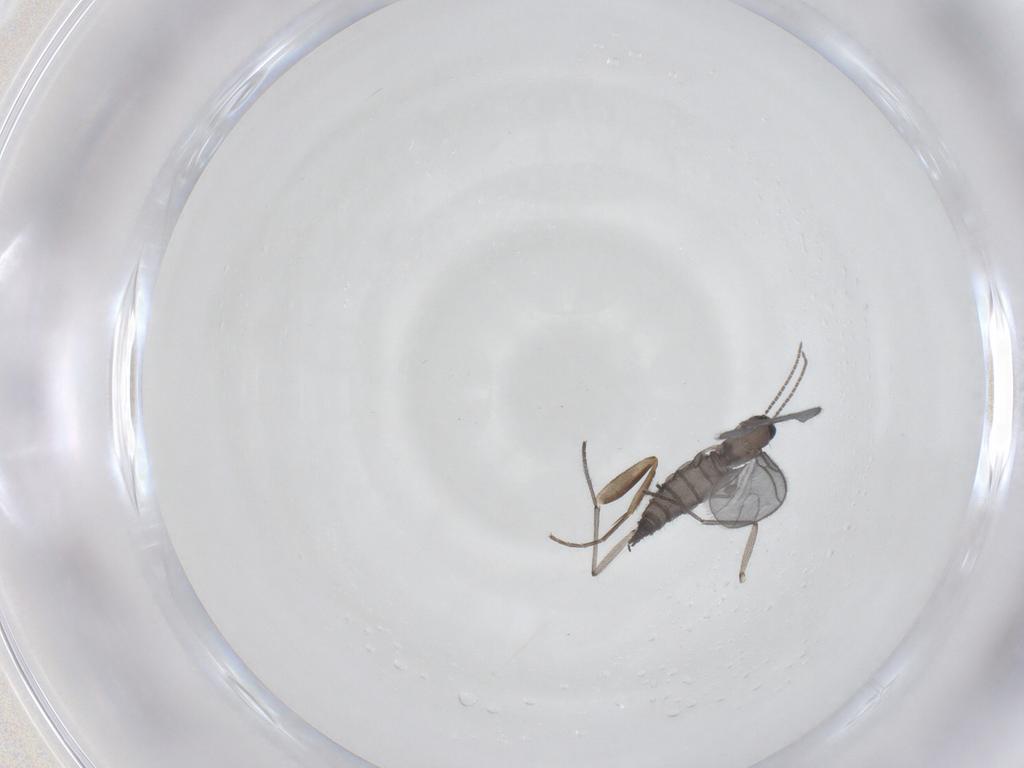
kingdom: Animalia
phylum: Arthropoda
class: Insecta
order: Diptera
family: Sciaridae
